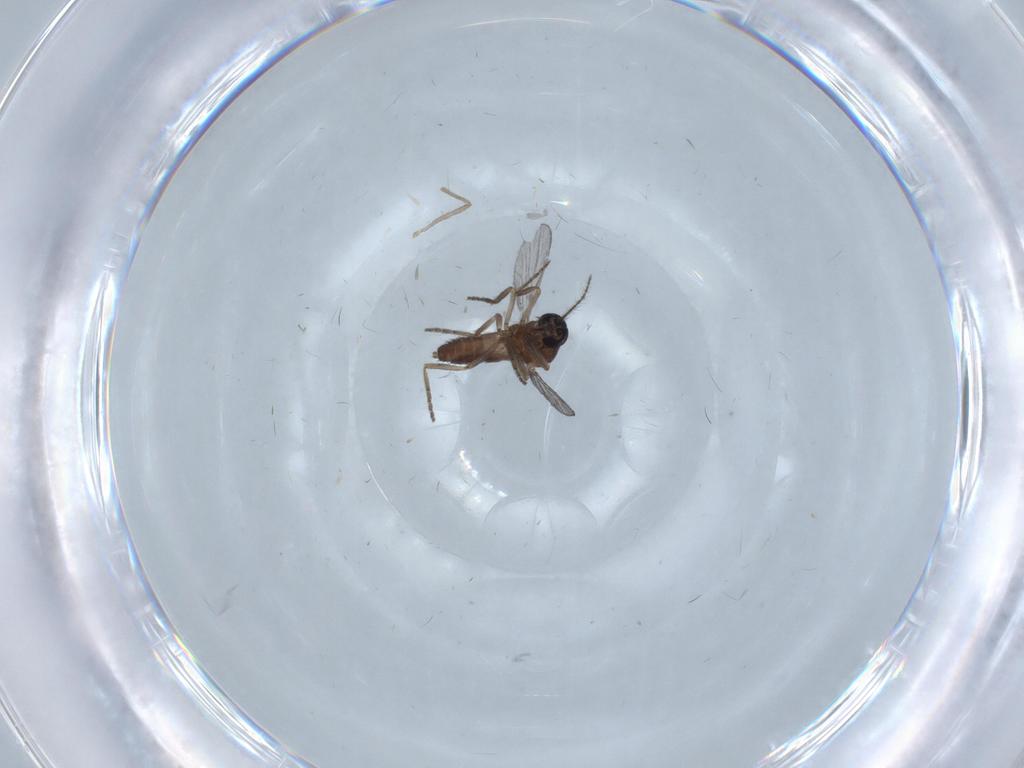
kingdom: Animalia
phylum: Arthropoda
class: Insecta
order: Diptera
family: Chironomidae
